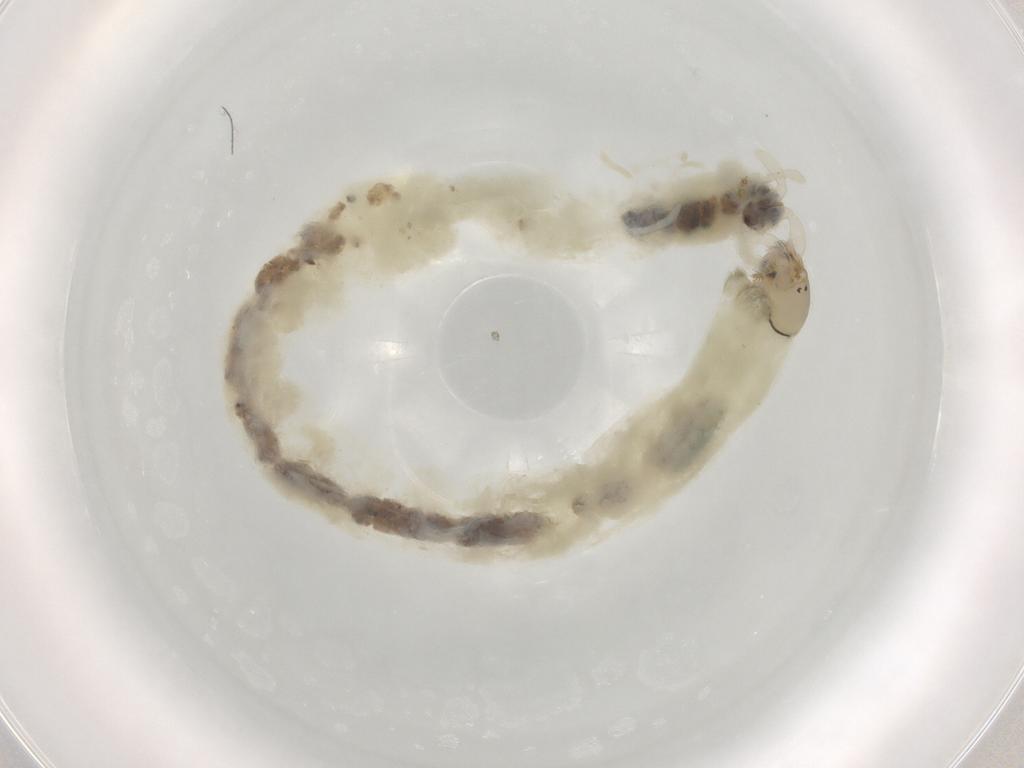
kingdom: Animalia
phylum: Arthropoda
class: Insecta
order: Diptera
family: Chironomidae
